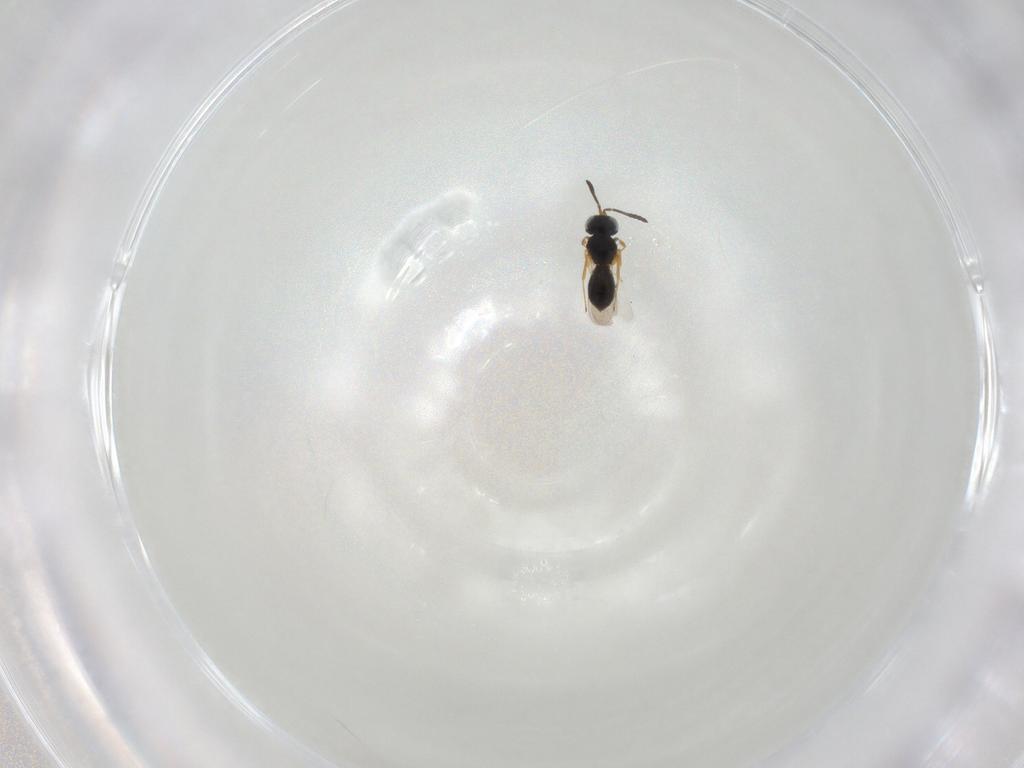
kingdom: Animalia
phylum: Arthropoda
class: Insecta
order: Hymenoptera
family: Scelionidae
